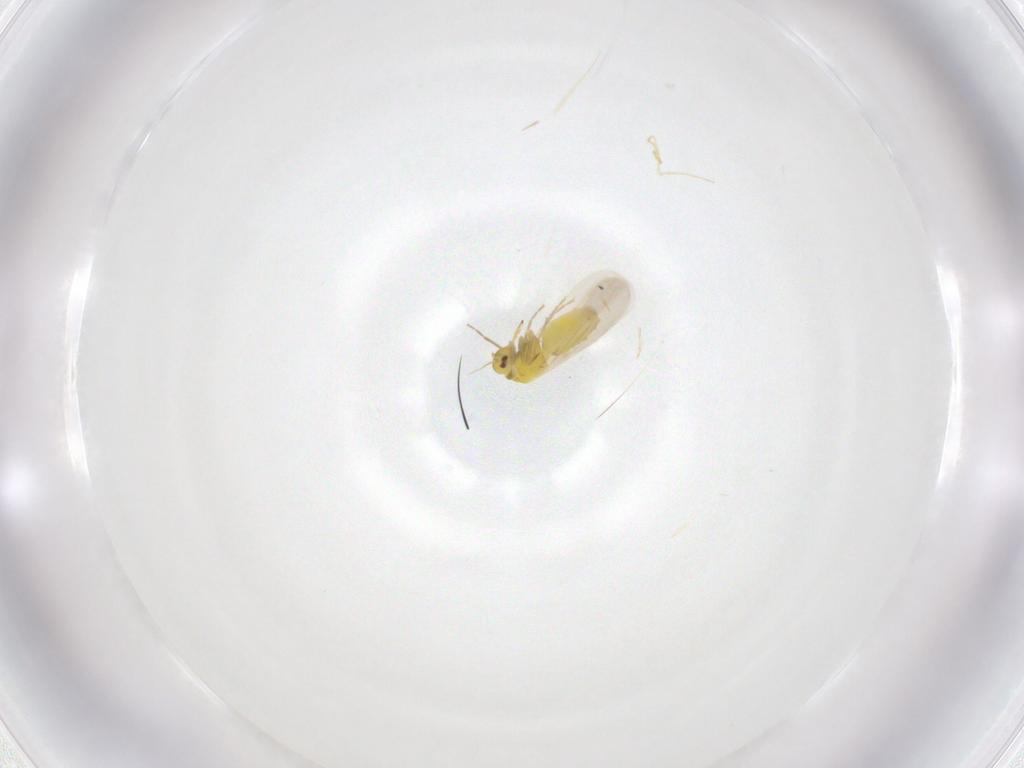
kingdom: Animalia
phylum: Arthropoda
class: Insecta
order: Hemiptera
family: Aleyrodidae
